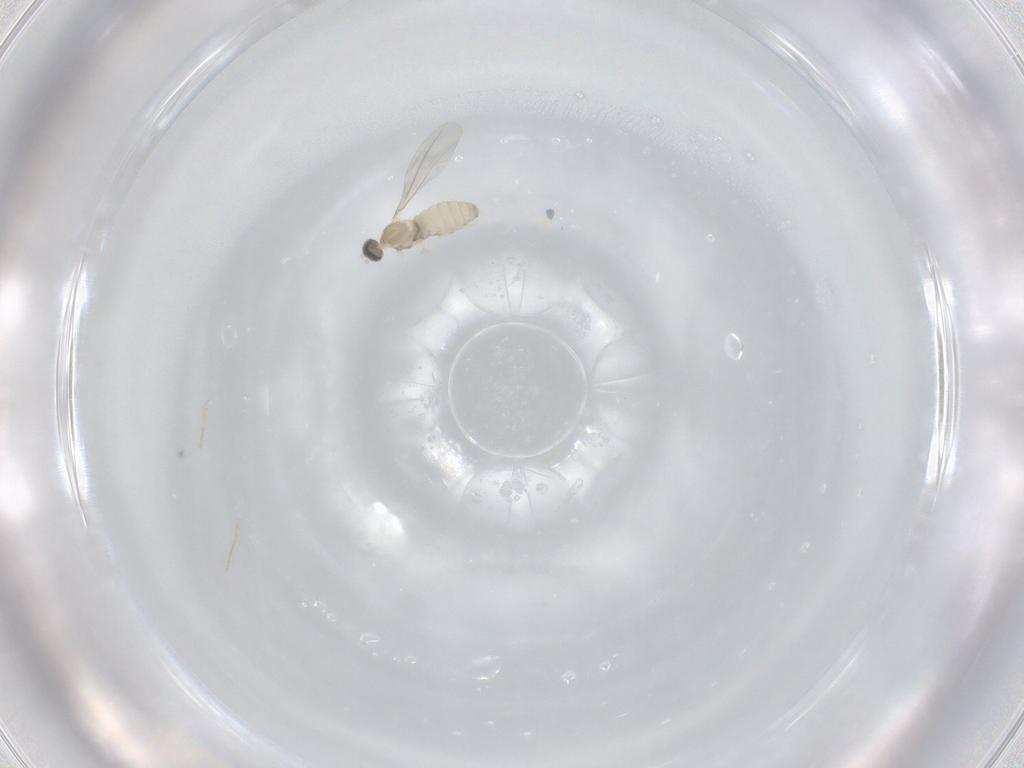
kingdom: Animalia
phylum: Arthropoda
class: Insecta
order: Diptera
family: Cecidomyiidae
